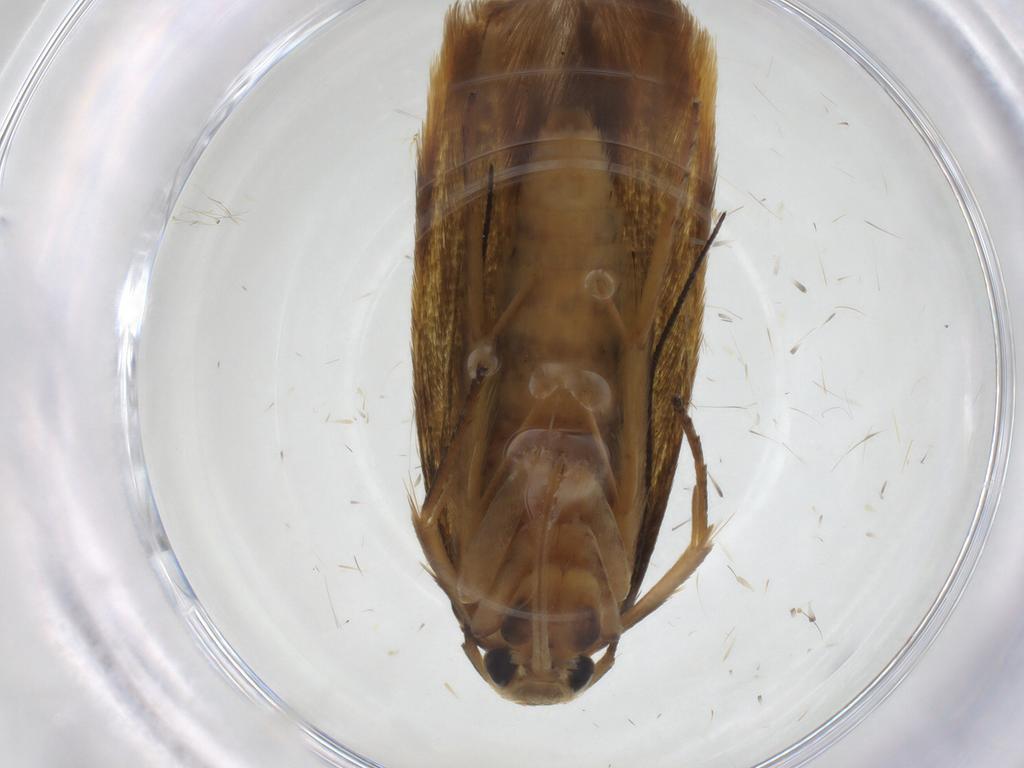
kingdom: Animalia
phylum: Arthropoda
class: Insecta
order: Lepidoptera
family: Stathmopodidae
